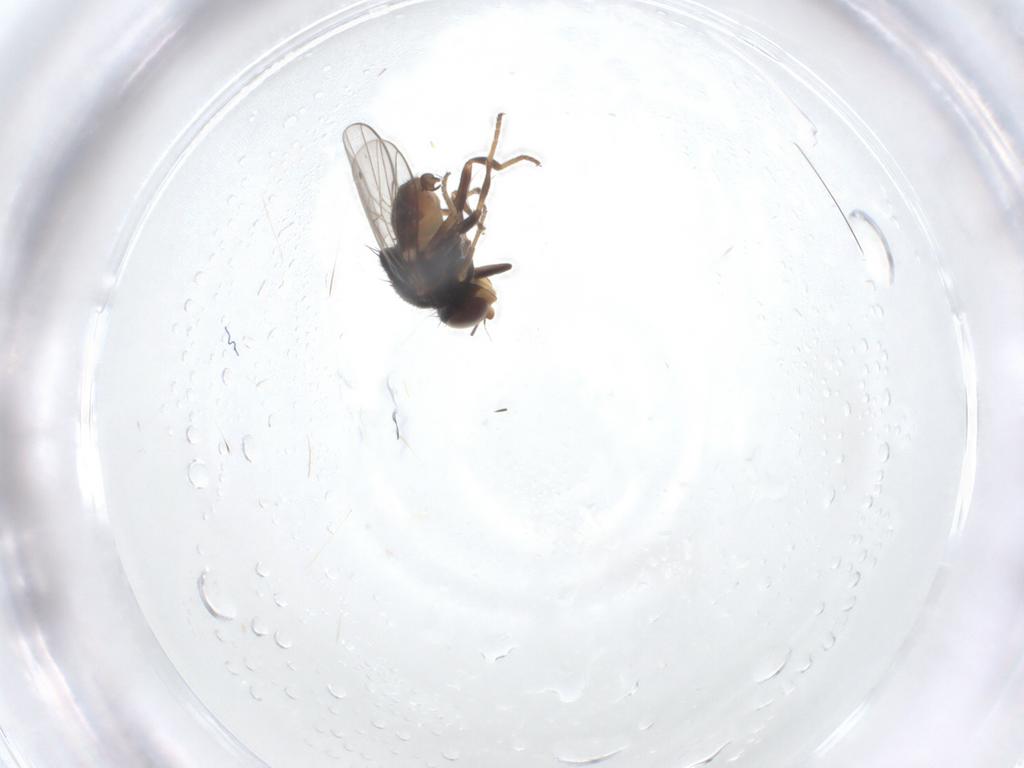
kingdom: Animalia
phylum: Arthropoda
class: Insecta
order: Diptera
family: Chloropidae
